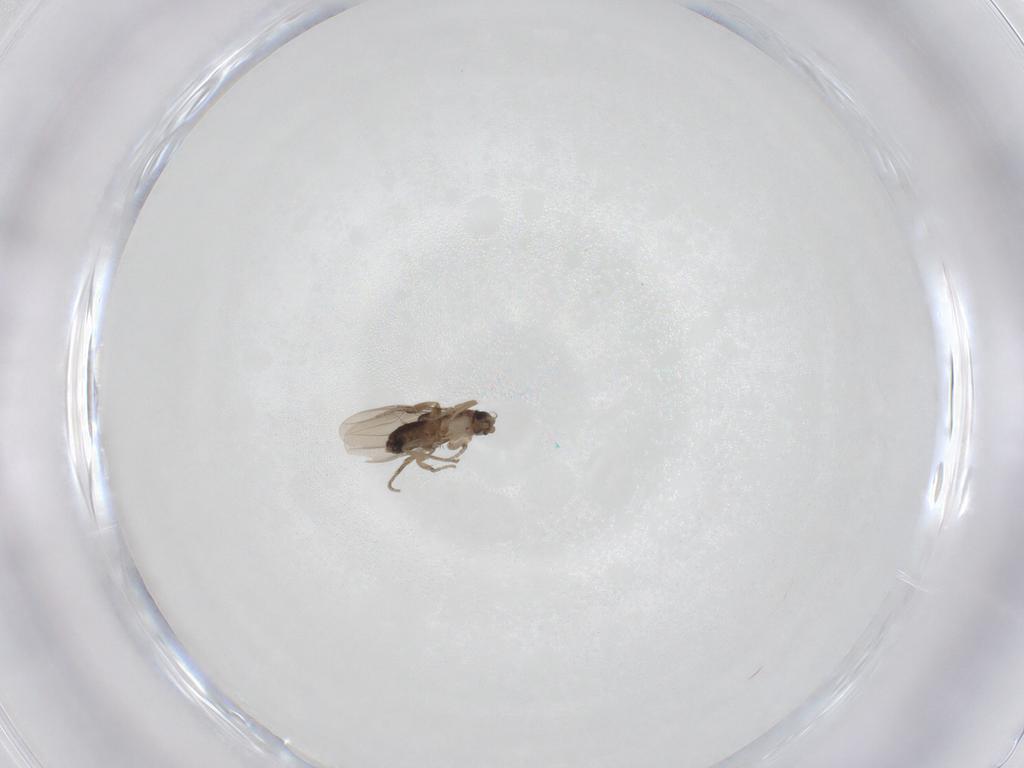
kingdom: Animalia
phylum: Arthropoda
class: Insecta
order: Diptera
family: Phoridae
